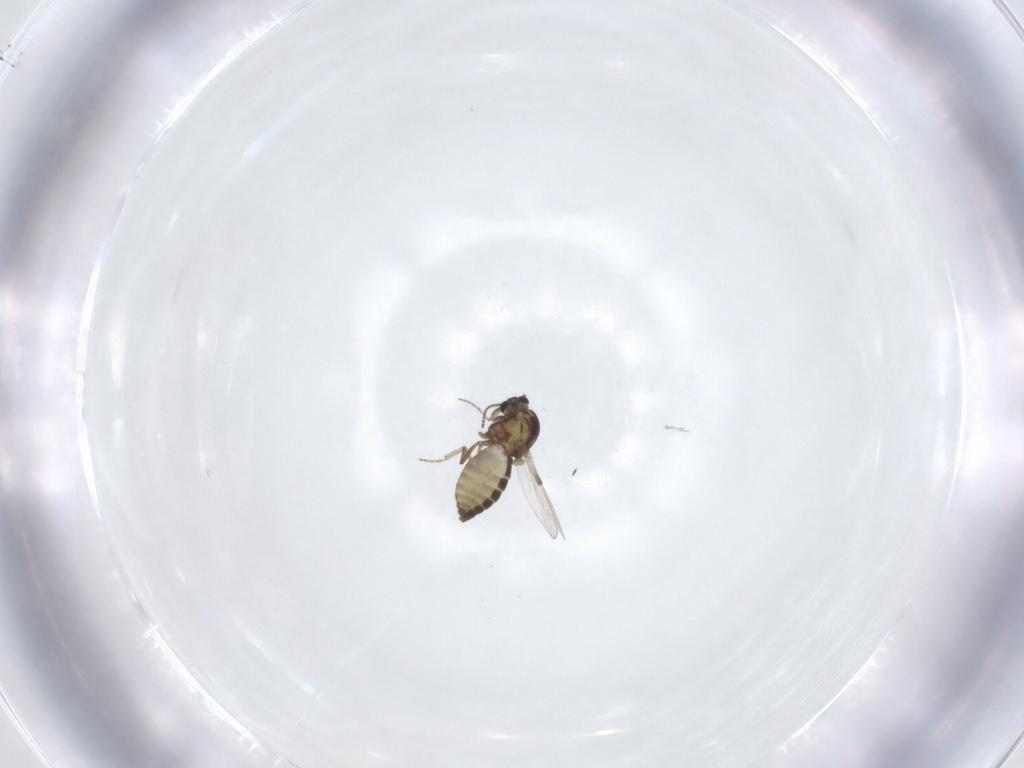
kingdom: Animalia
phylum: Arthropoda
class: Insecta
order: Diptera
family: Ceratopogonidae
